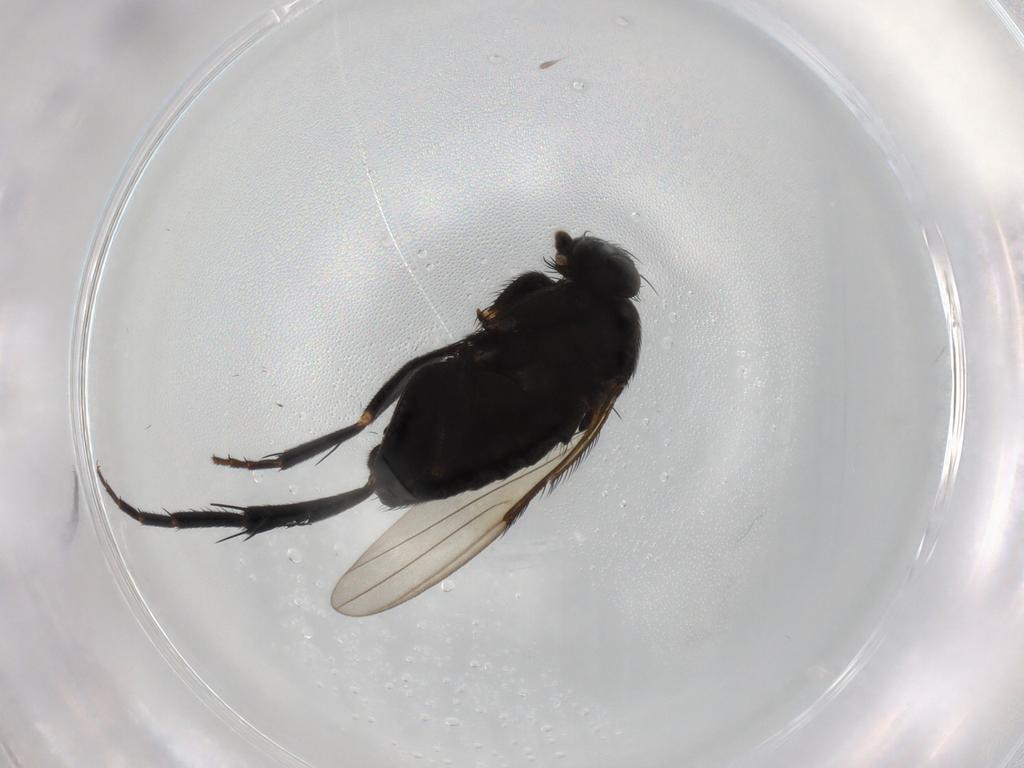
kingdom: Animalia
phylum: Arthropoda
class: Insecta
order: Diptera
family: Phoridae
